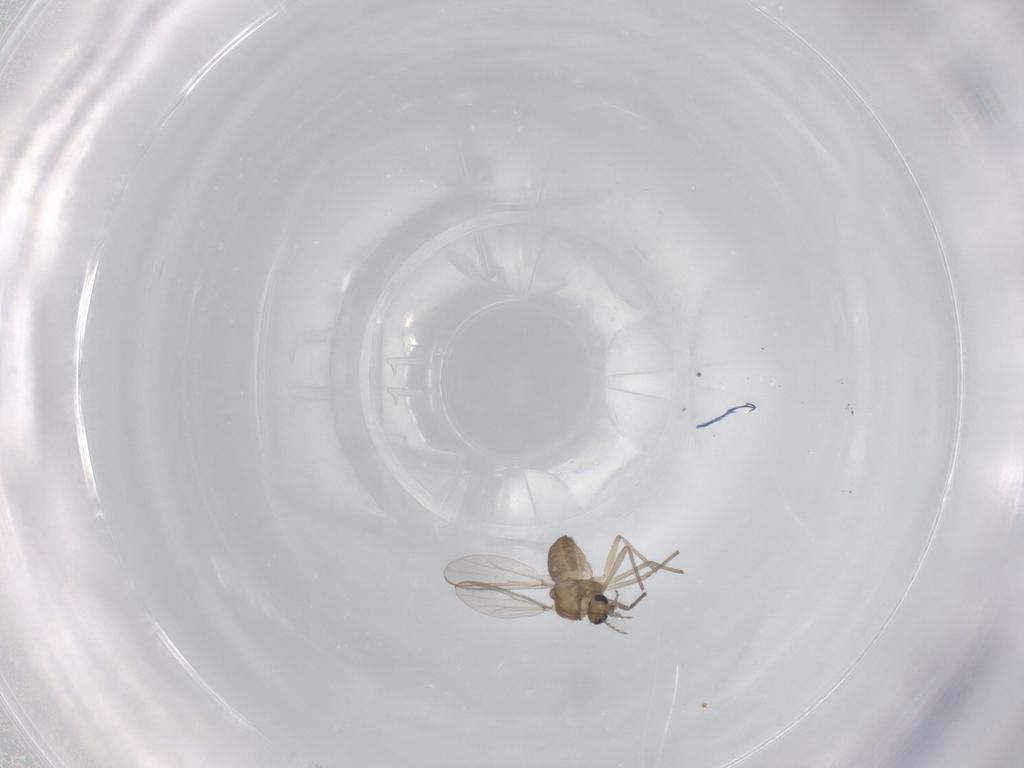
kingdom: Animalia
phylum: Arthropoda
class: Insecta
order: Diptera
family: Chironomidae
